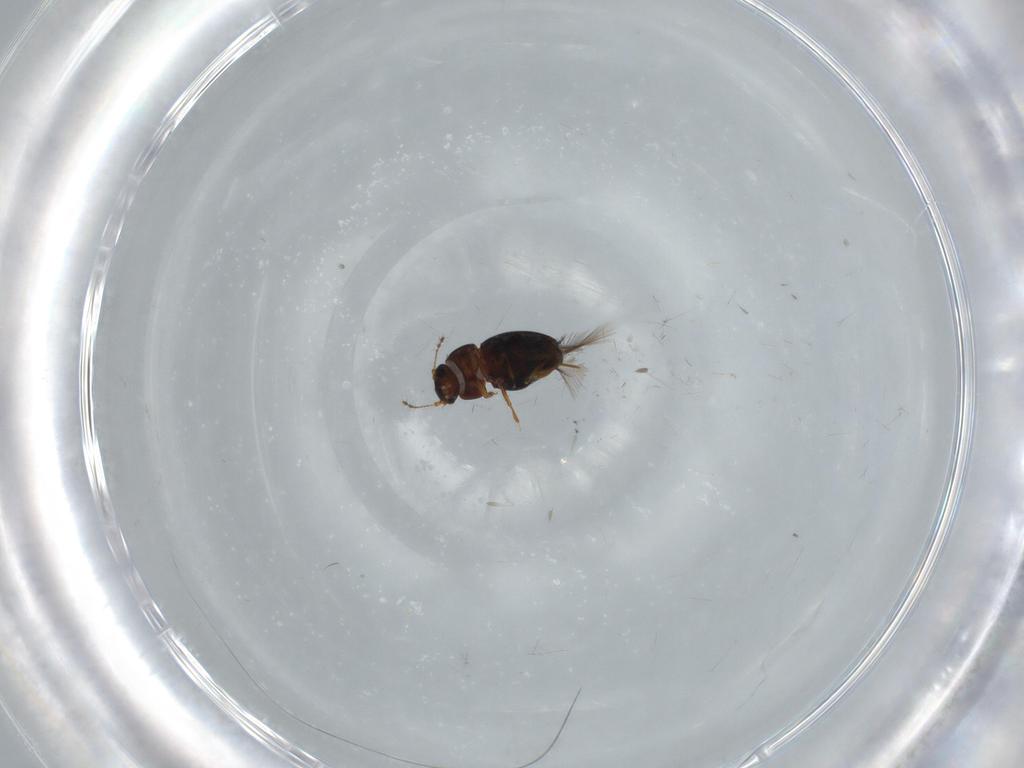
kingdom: Animalia
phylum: Arthropoda
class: Insecta
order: Coleoptera
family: Ptiliidae
